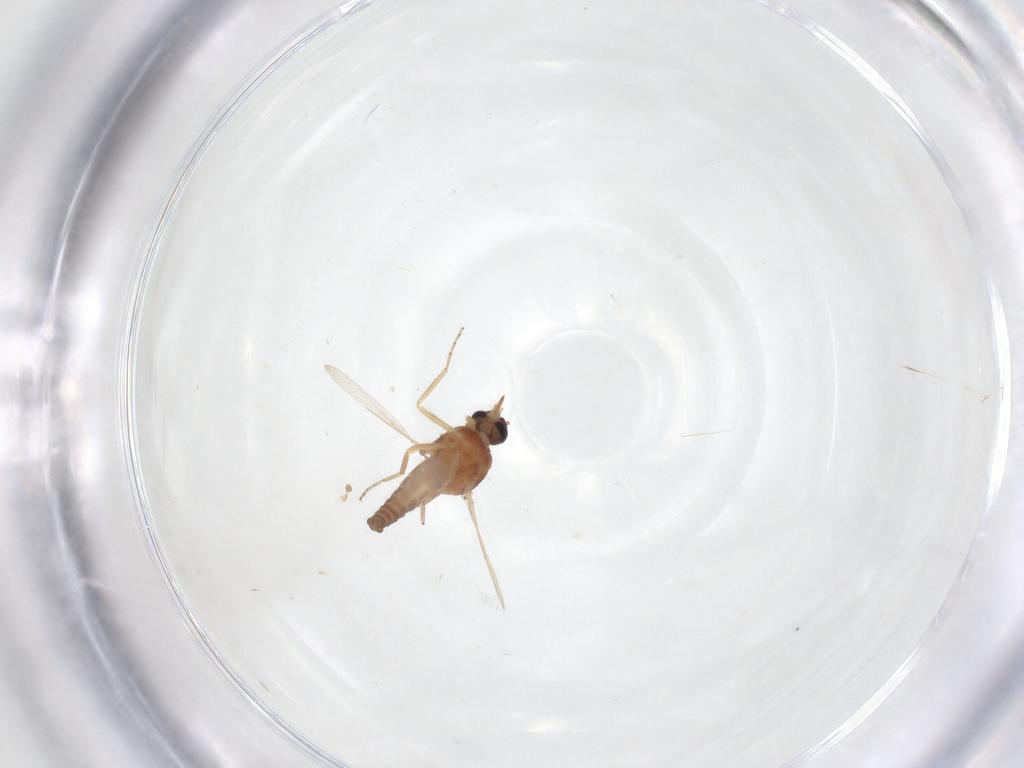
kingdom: Animalia
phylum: Arthropoda
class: Insecta
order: Diptera
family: Ceratopogonidae
